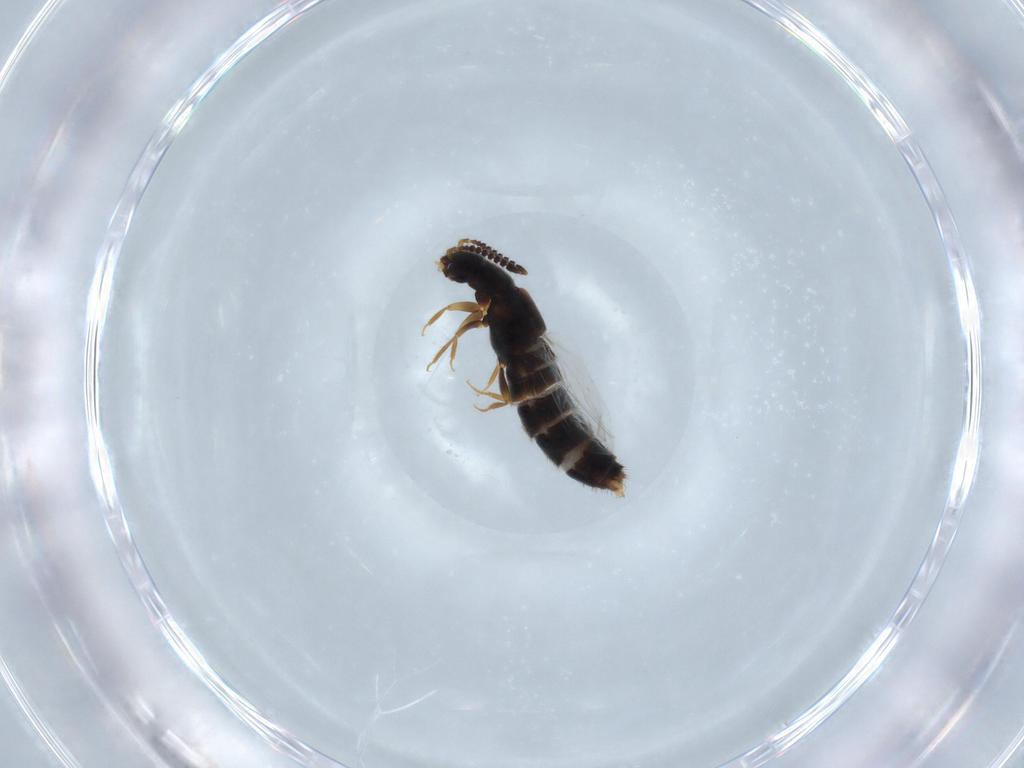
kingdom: Animalia
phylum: Arthropoda
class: Insecta
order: Coleoptera
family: Staphylinidae
